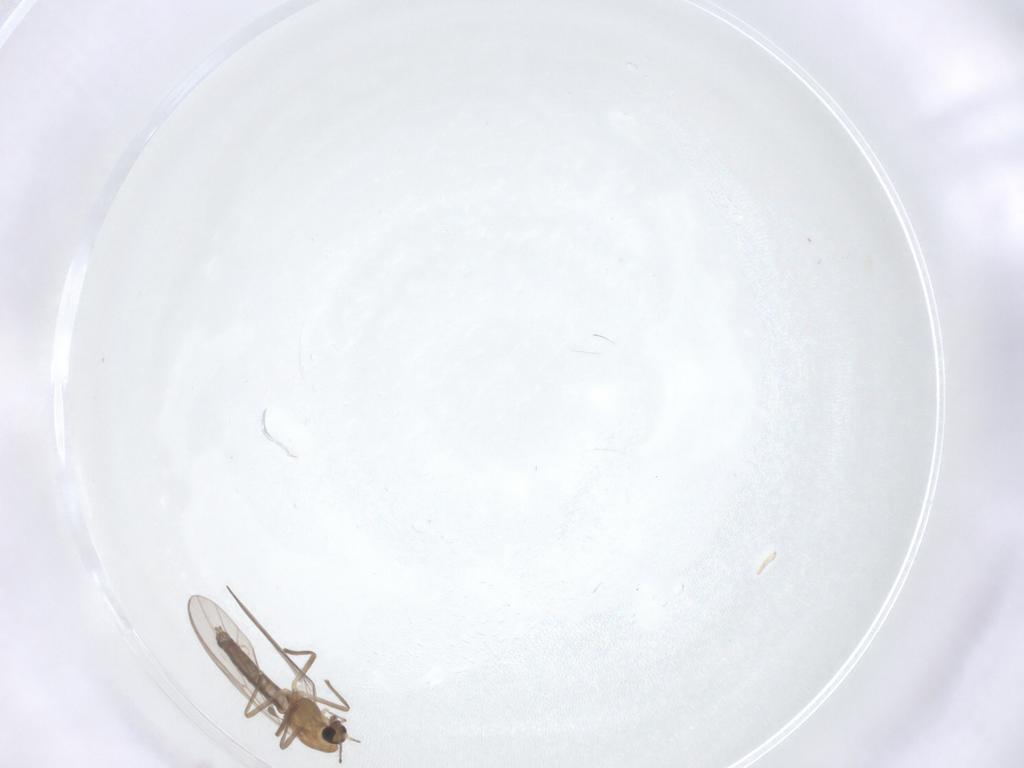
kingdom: Animalia
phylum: Arthropoda
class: Insecta
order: Diptera
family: Chironomidae
